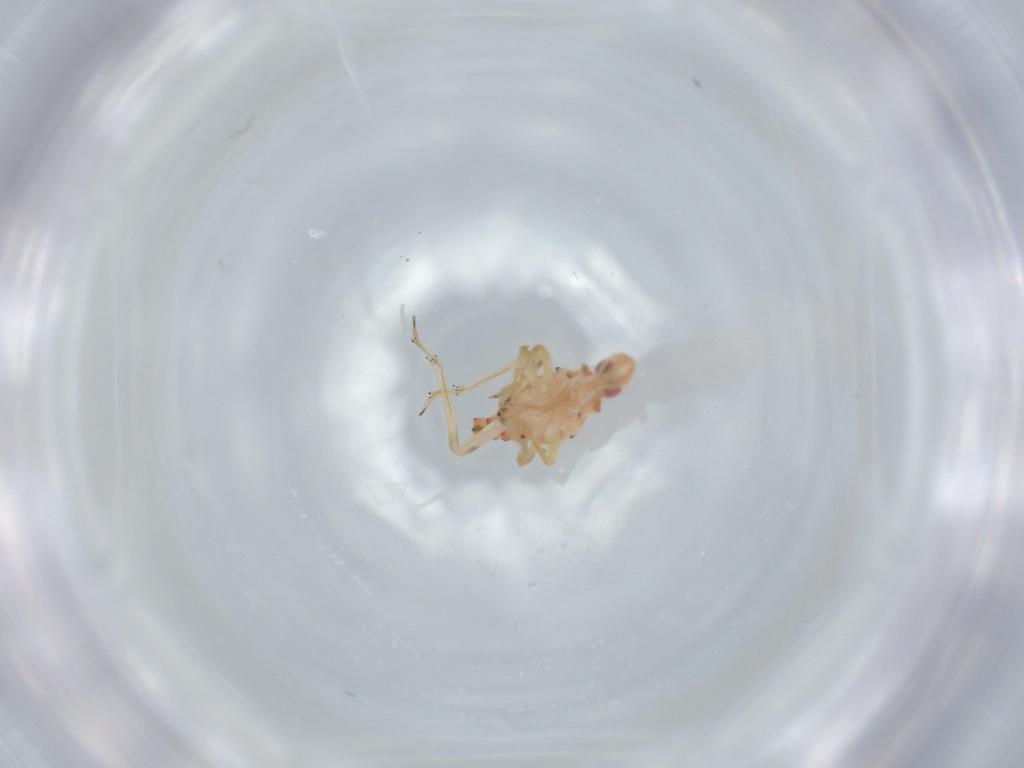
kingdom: Animalia
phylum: Arthropoda
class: Insecta
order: Hemiptera
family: Tropiduchidae
